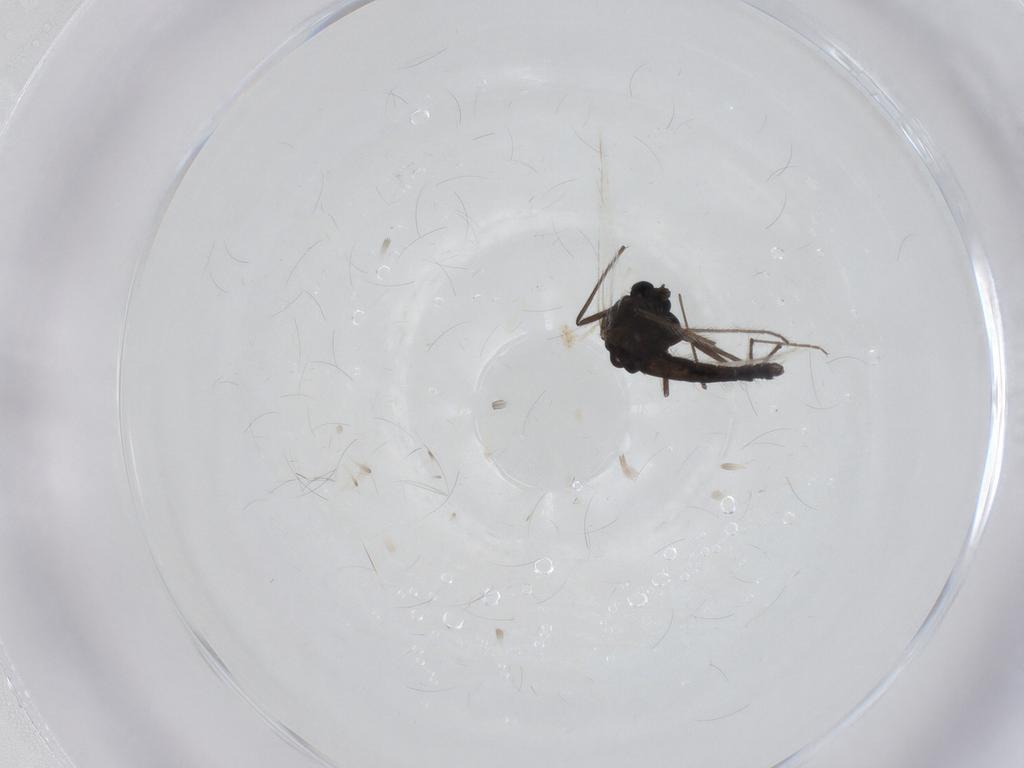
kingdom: Animalia
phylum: Arthropoda
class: Insecta
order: Diptera
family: Chironomidae
